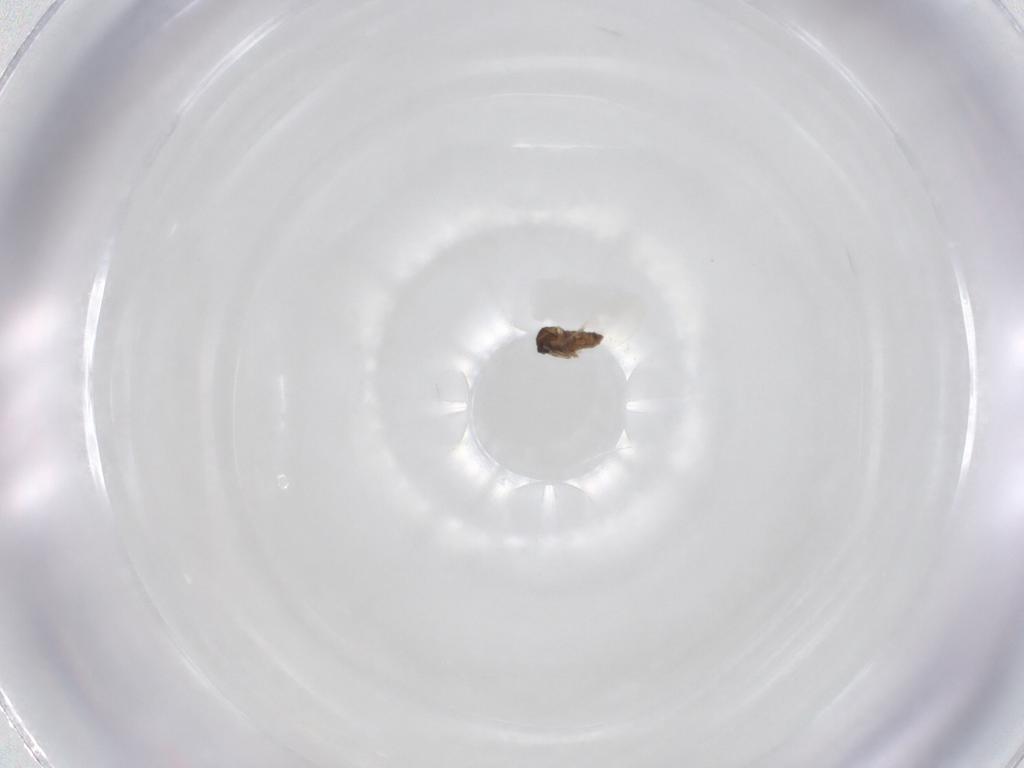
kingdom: Animalia
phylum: Arthropoda
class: Insecta
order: Diptera
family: Cecidomyiidae
